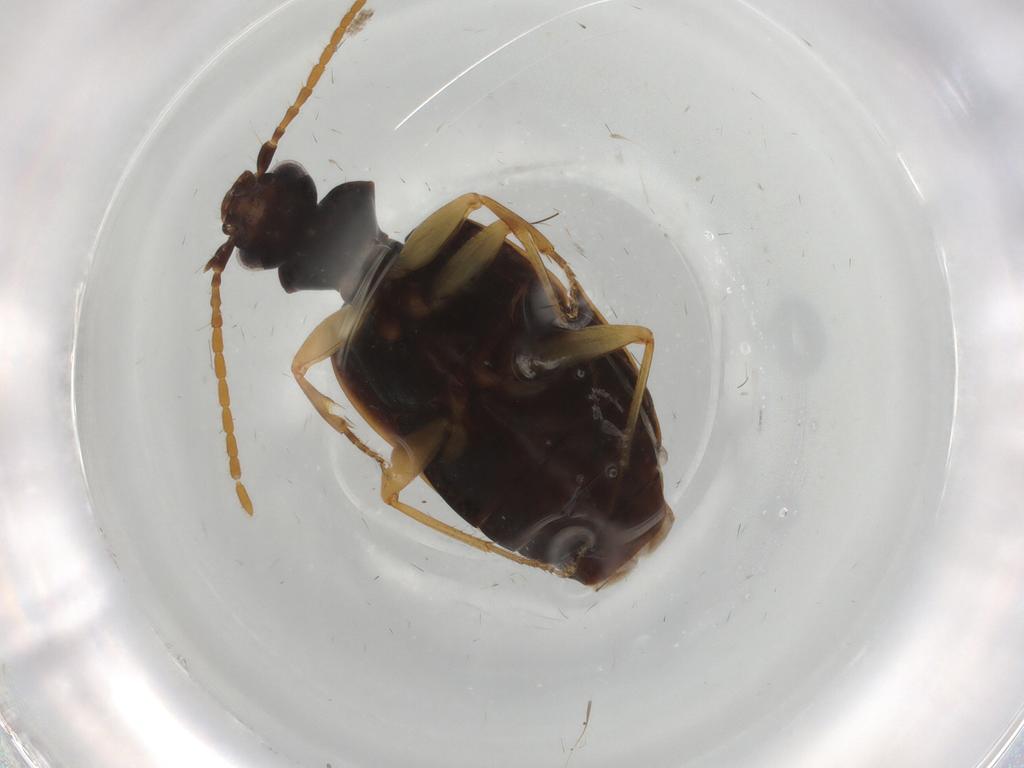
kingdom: Animalia
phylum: Arthropoda
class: Insecta
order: Coleoptera
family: Carabidae
